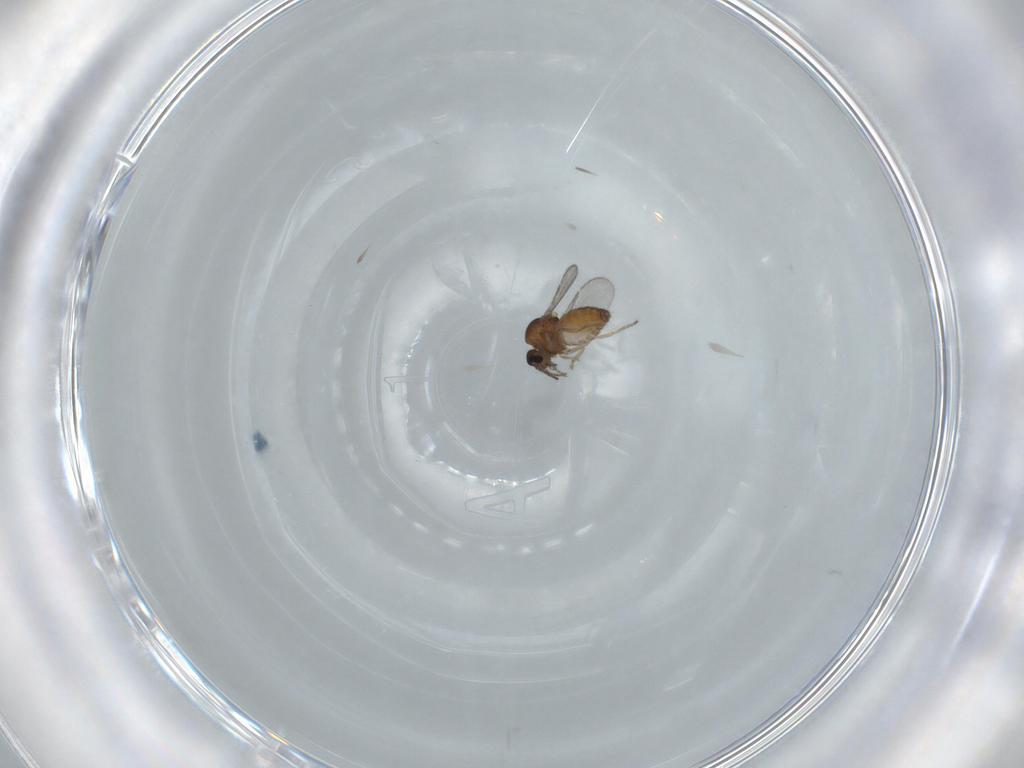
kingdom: Animalia
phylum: Arthropoda
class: Insecta
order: Diptera
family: Ceratopogonidae
